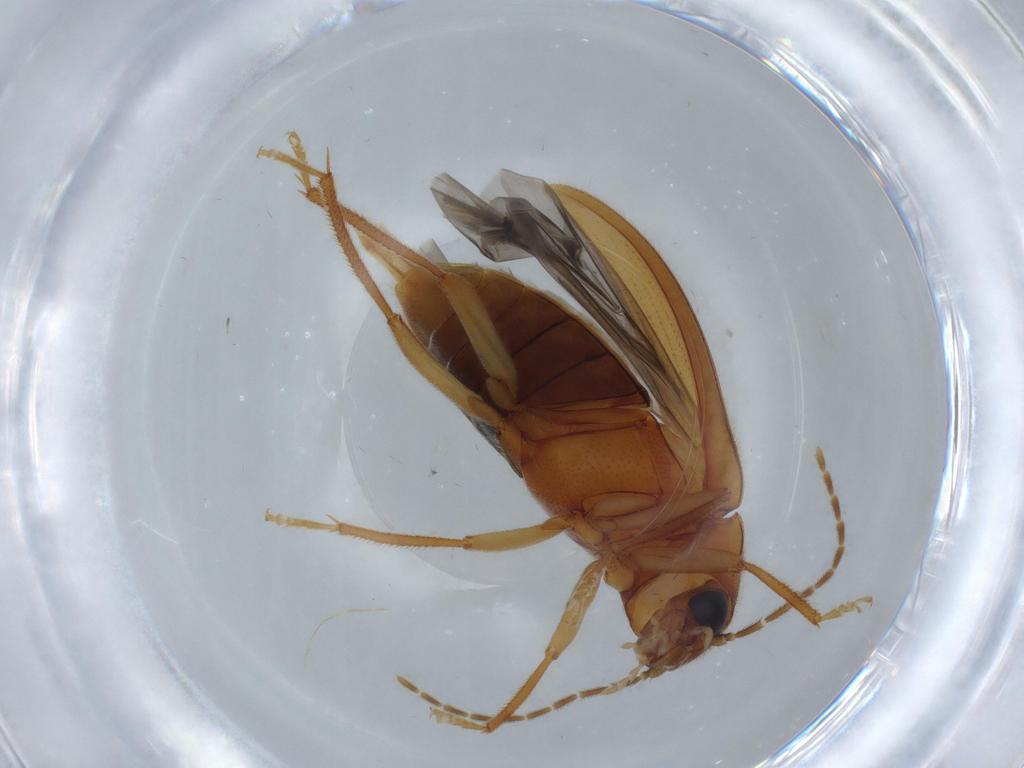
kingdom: Animalia
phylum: Arthropoda
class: Insecta
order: Coleoptera
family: Ptilodactylidae
